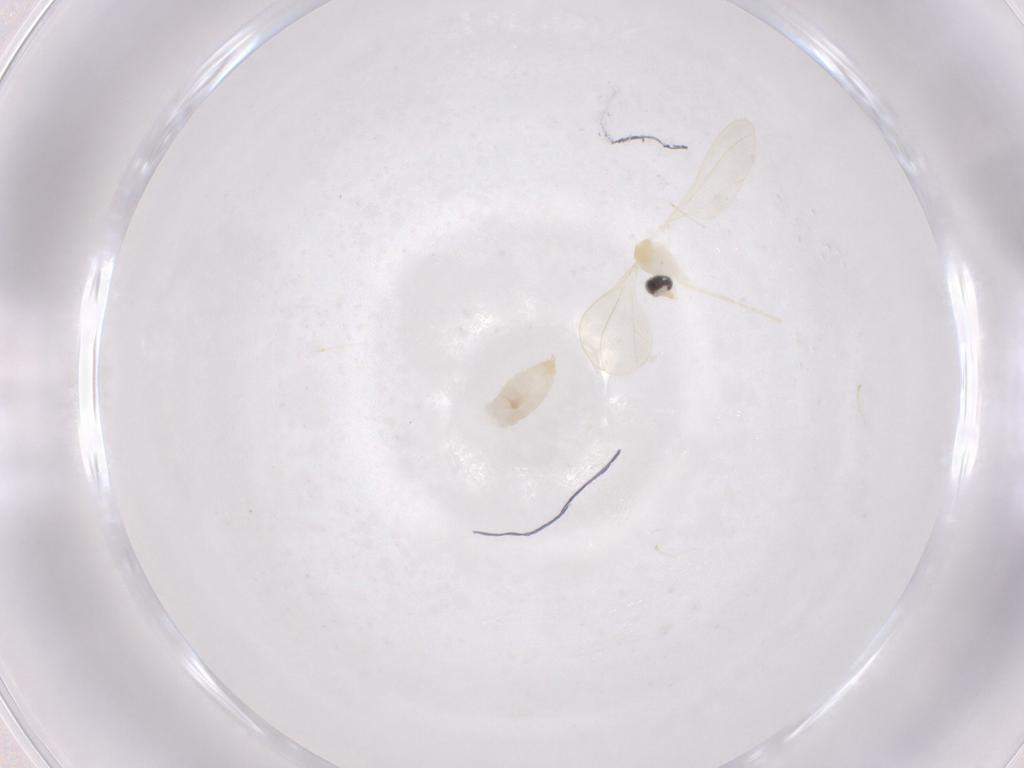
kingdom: Animalia
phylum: Arthropoda
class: Insecta
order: Diptera
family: Cecidomyiidae
